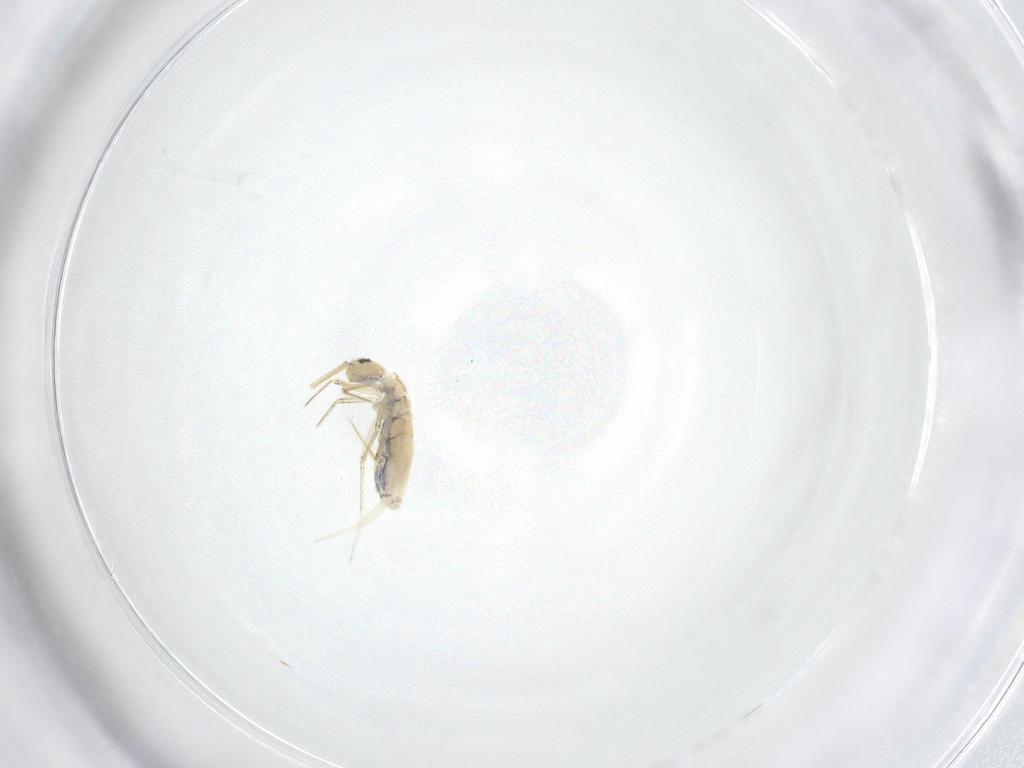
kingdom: Animalia
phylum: Arthropoda
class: Collembola
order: Entomobryomorpha
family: Entomobryidae
